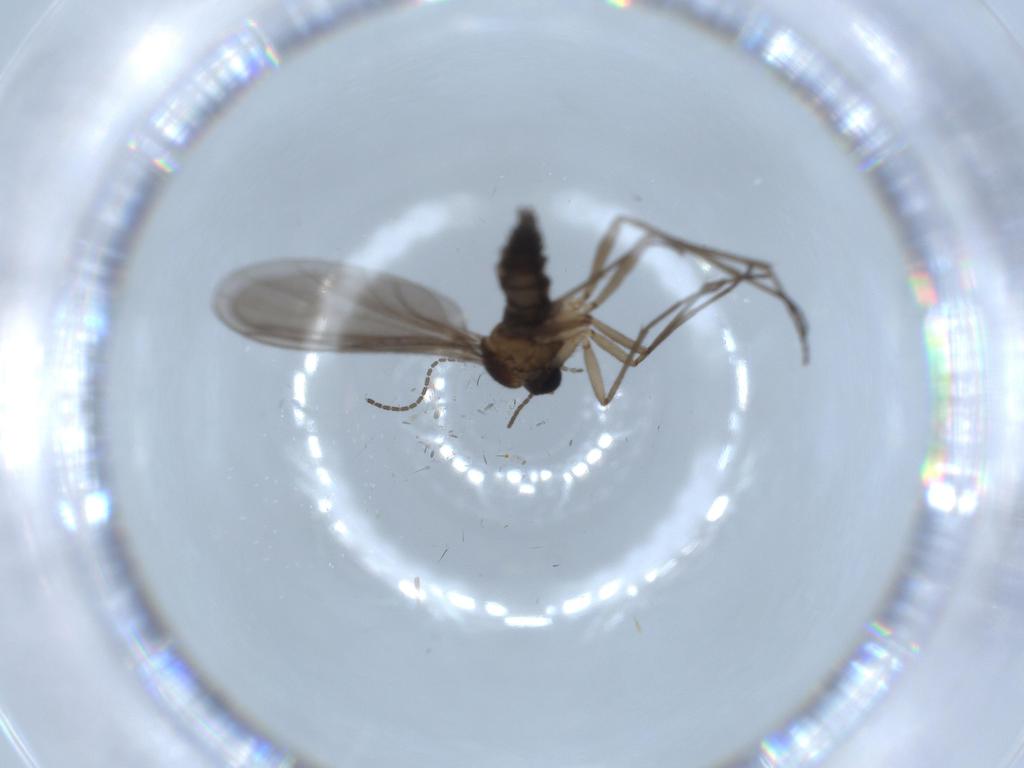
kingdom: Animalia
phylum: Arthropoda
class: Insecta
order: Diptera
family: Sciaridae
